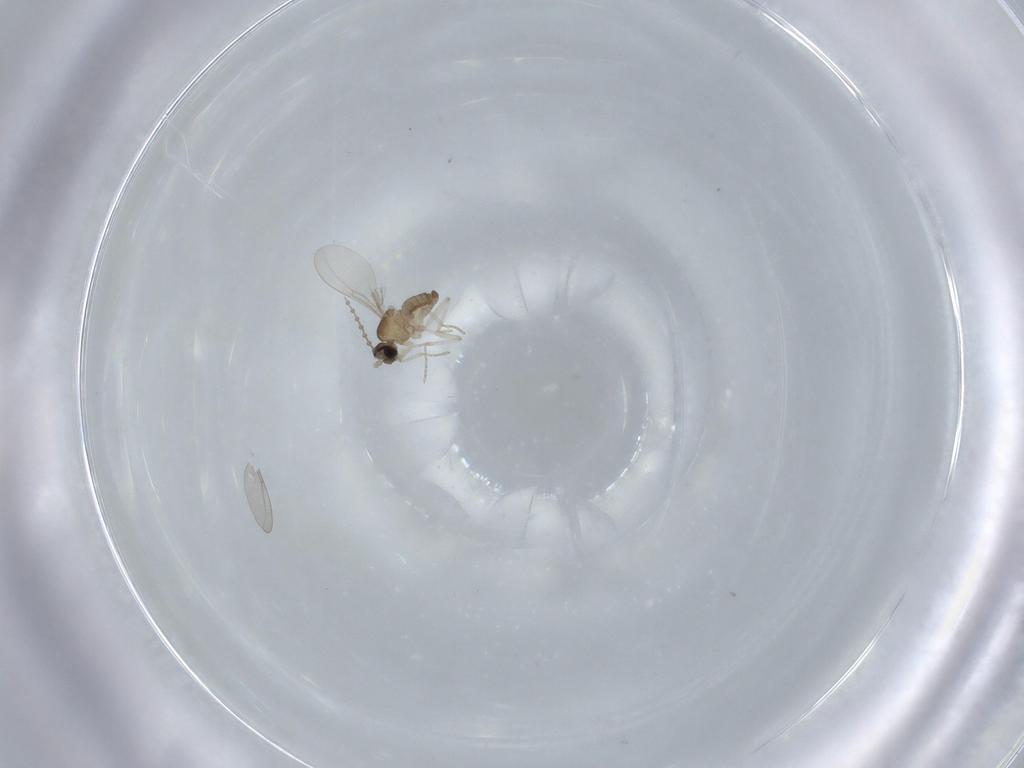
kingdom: Animalia
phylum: Arthropoda
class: Insecta
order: Diptera
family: Cecidomyiidae
